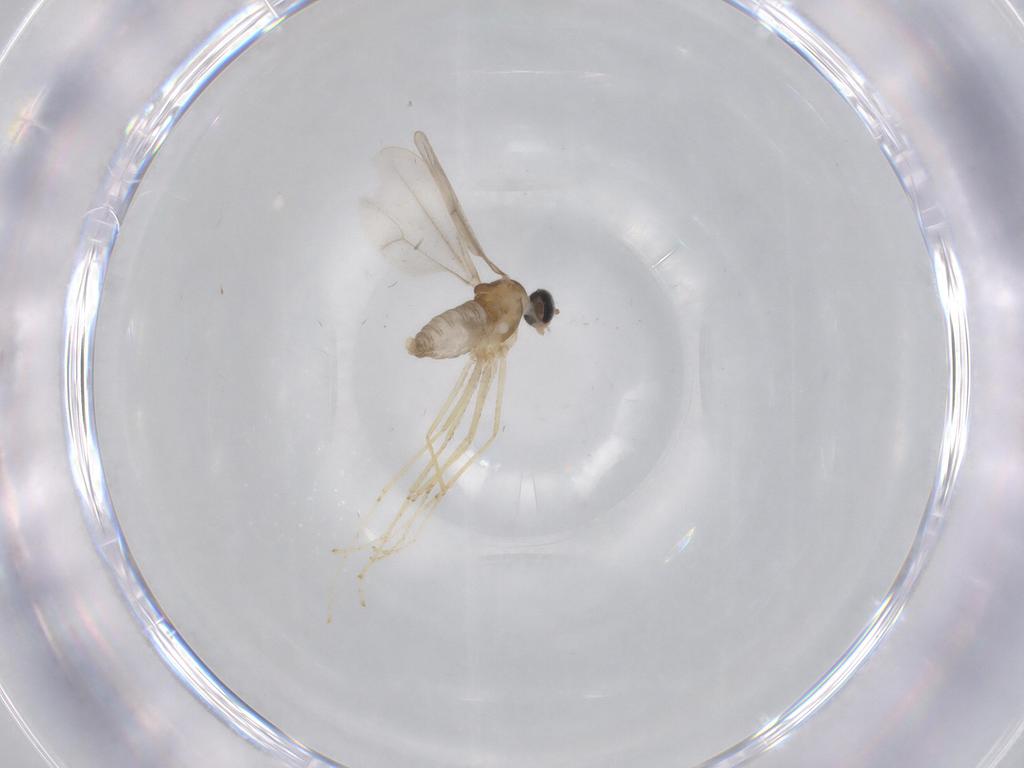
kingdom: Animalia
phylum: Arthropoda
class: Insecta
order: Diptera
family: Cecidomyiidae
